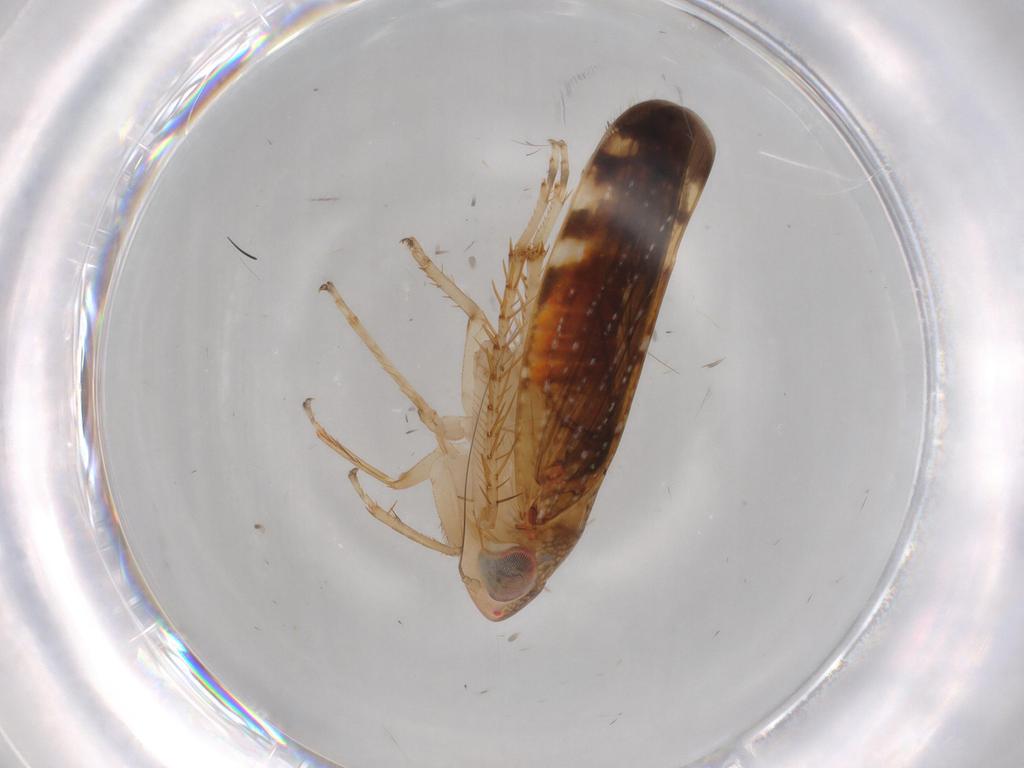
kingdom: Animalia
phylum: Arthropoda
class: Insecta
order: Hemiptera
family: Cicadellidae
